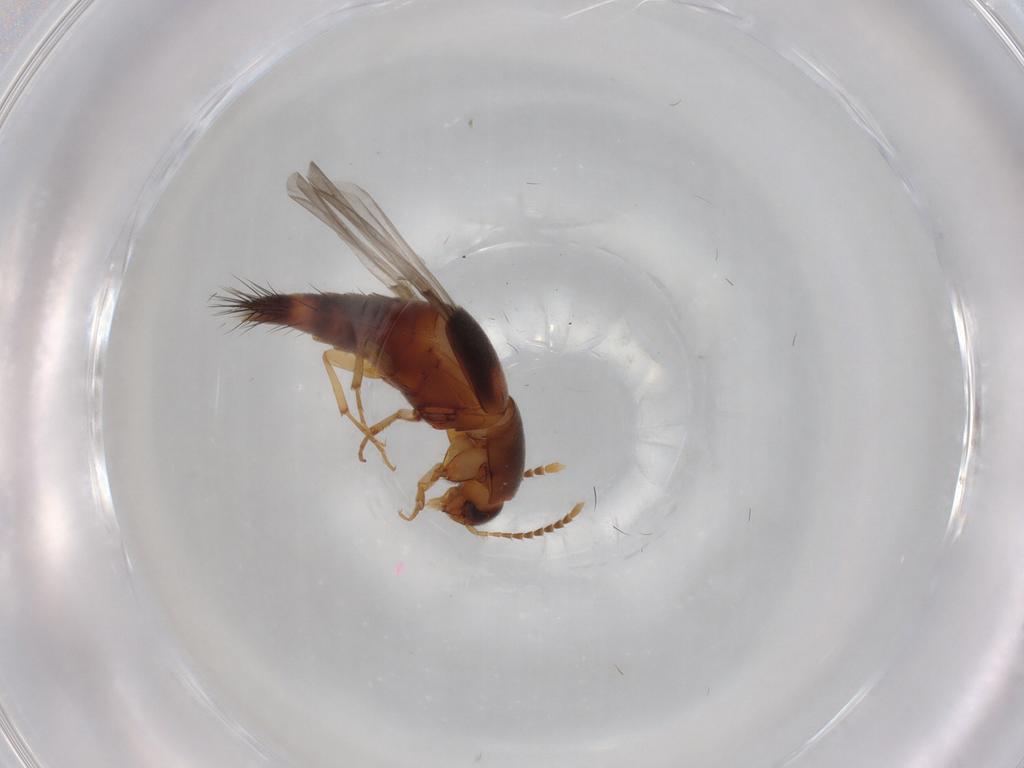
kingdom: Animalia
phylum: Arthropoda
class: Insecta
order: Coleoptera
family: Staphylinidae
